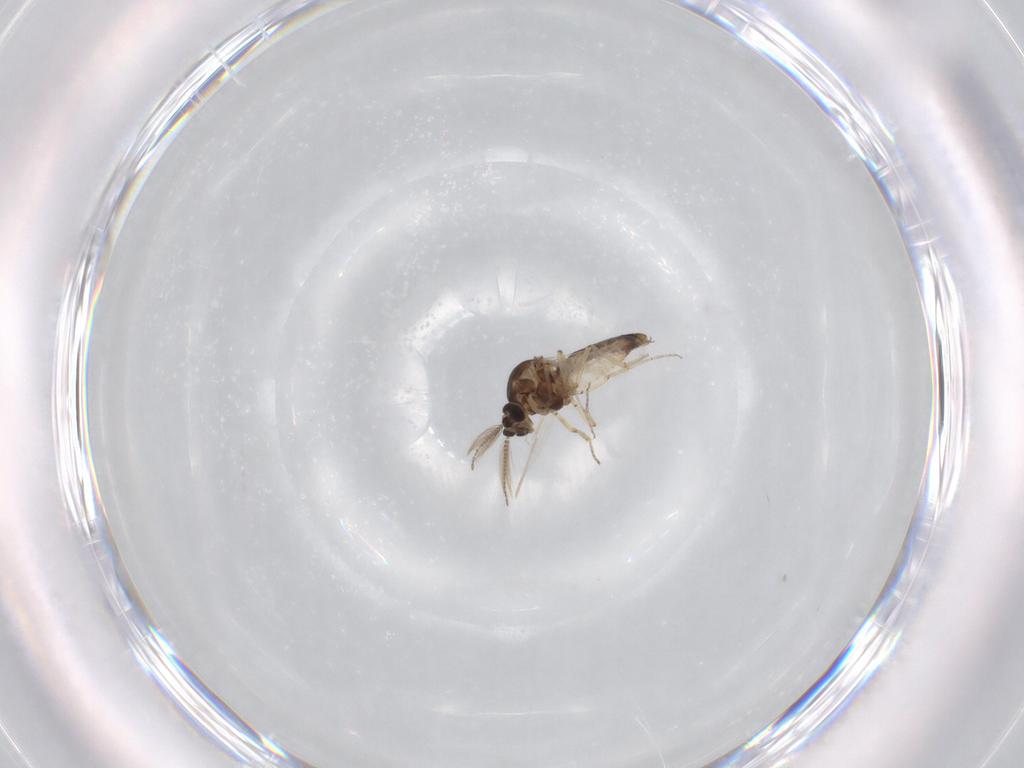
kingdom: Animalia
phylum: Arthropoda
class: Insecta
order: Diptera
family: Ceratopogonidae
